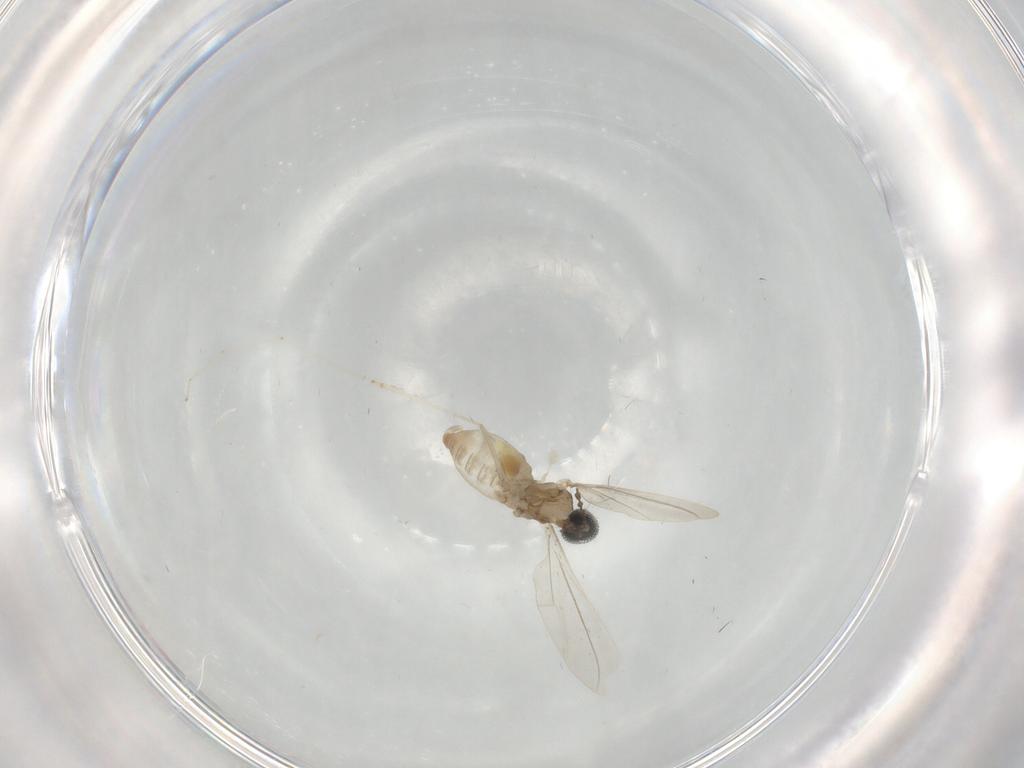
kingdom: Animalia
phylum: Arthropoda
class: Insecta
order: Diptera
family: Cecidomyiidae
